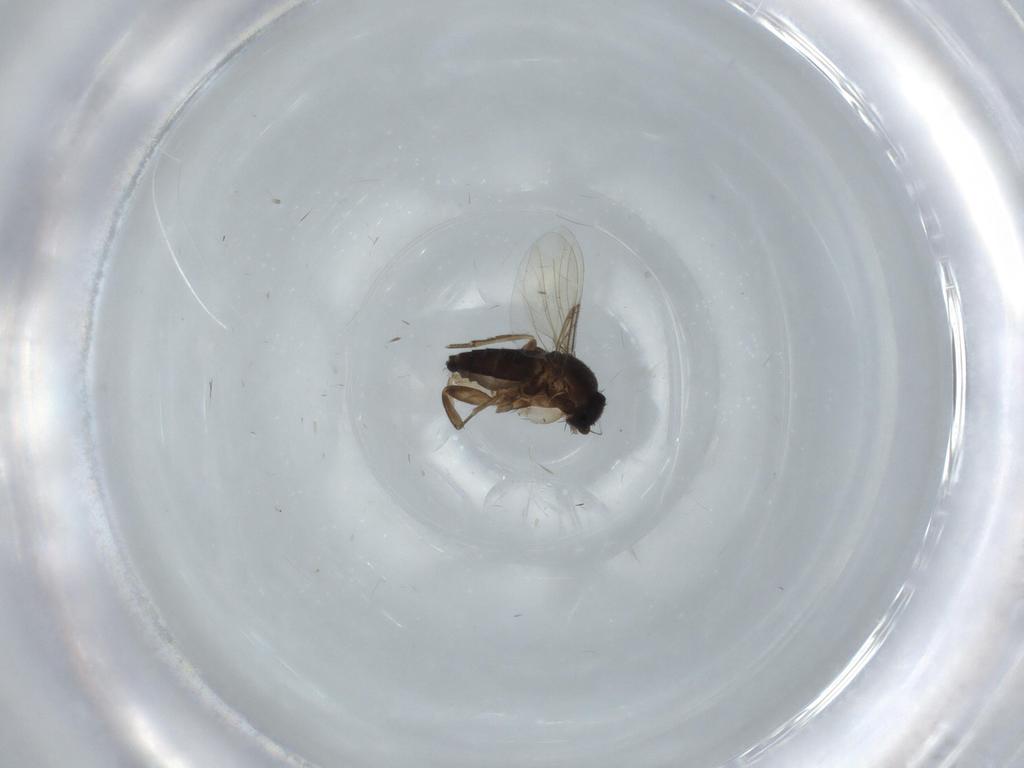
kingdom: Animalia
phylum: Arthropoda
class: Insecta
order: Diptera
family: Phoridae
